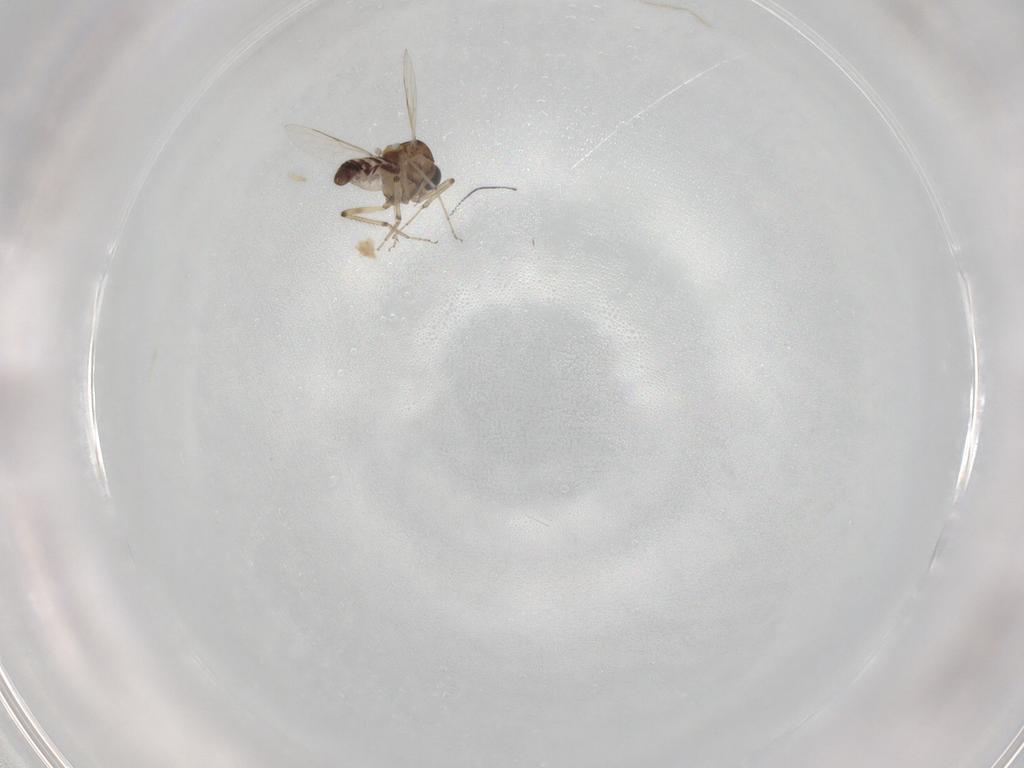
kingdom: Animalia
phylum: Arthropoda
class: Insecta
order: Diptera
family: Ceratopogonidae
